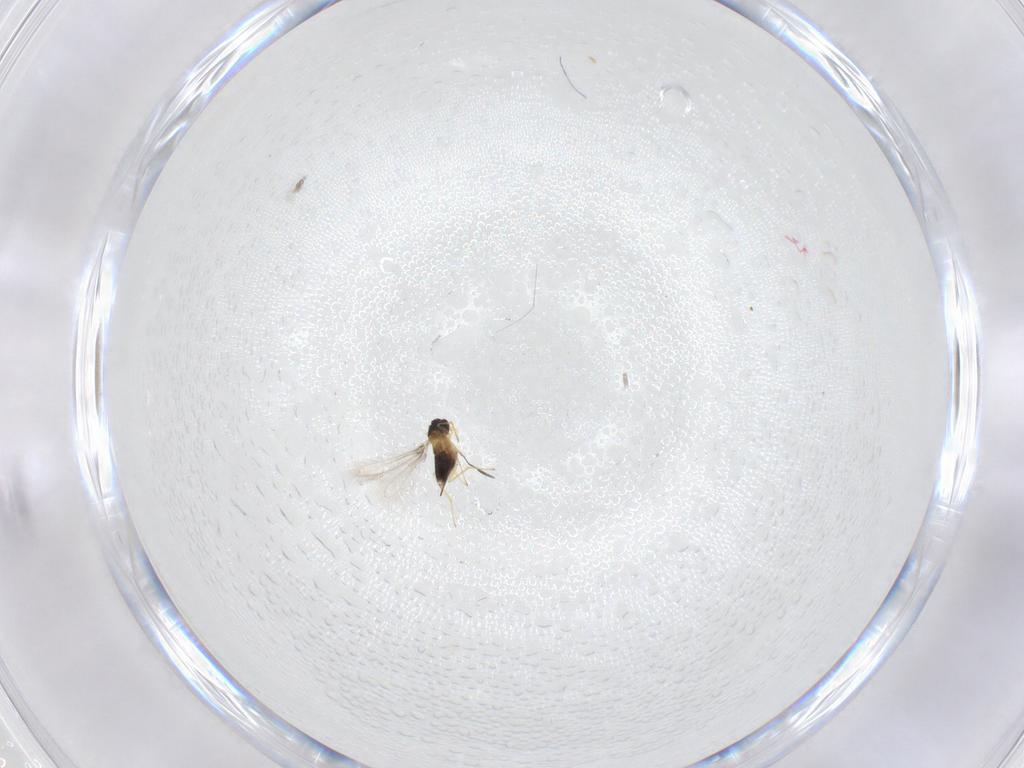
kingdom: Animalia
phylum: Arthropoda
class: Insecta
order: Hymenoptera
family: Mymaridae
